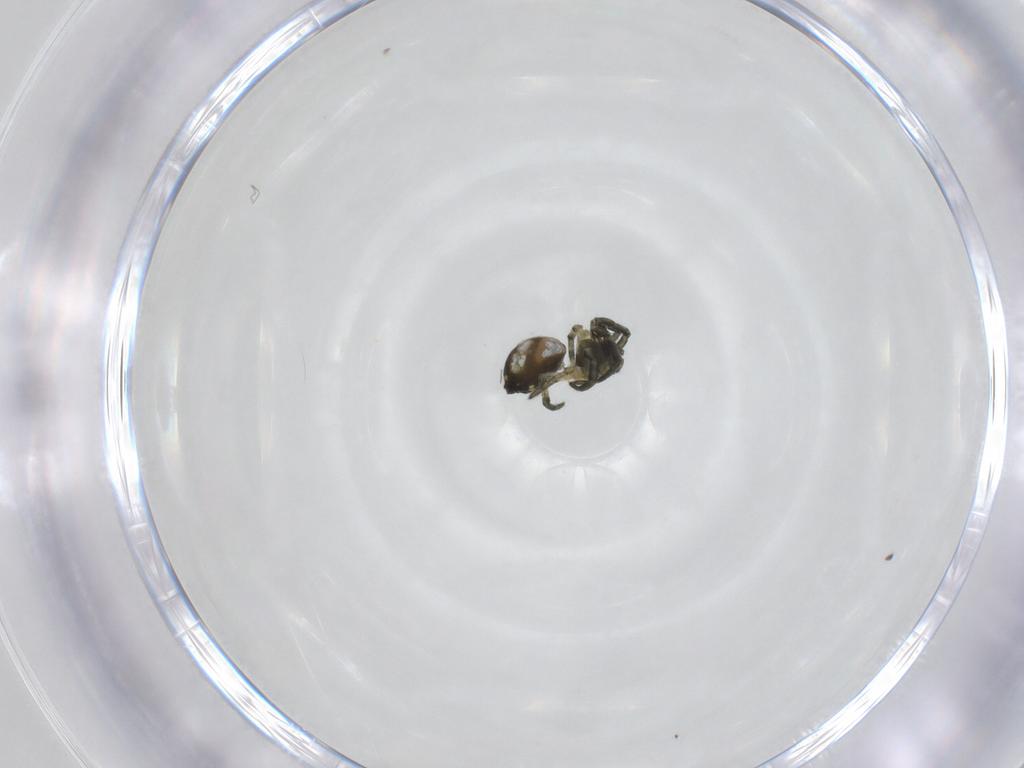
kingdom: Animalia
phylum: Arthropoda
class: Arachnida
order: Araneae
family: Tetragnathidae
